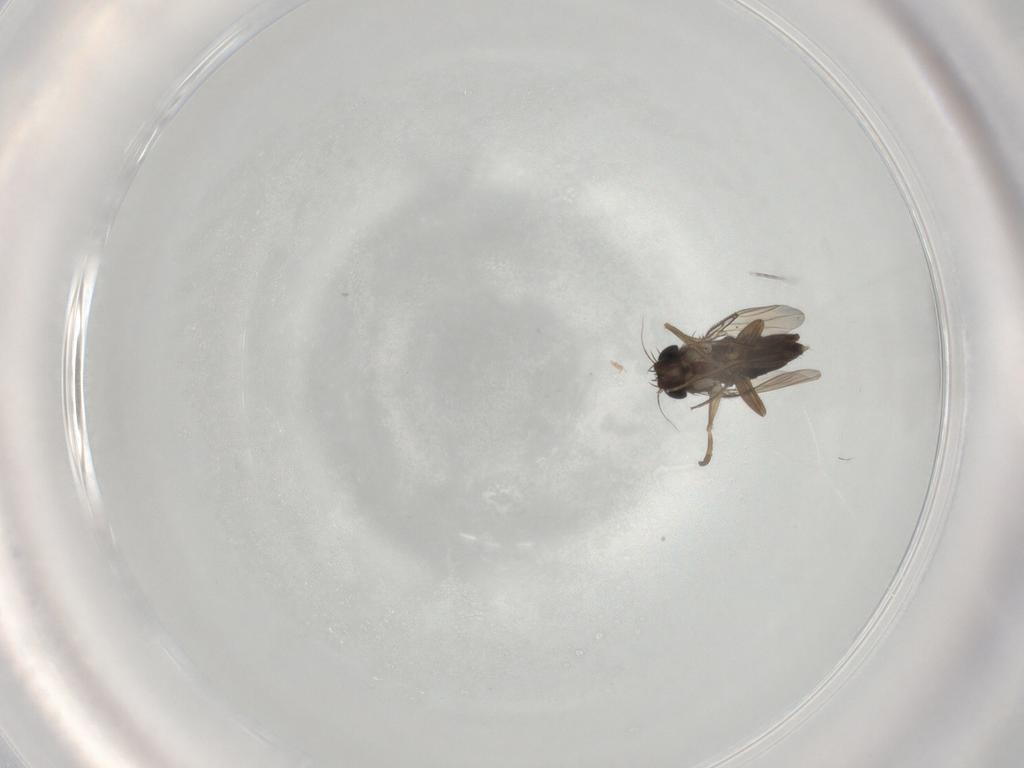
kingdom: Animalia
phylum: Arthropoda
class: Insecta
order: Diptera
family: Phoridae
